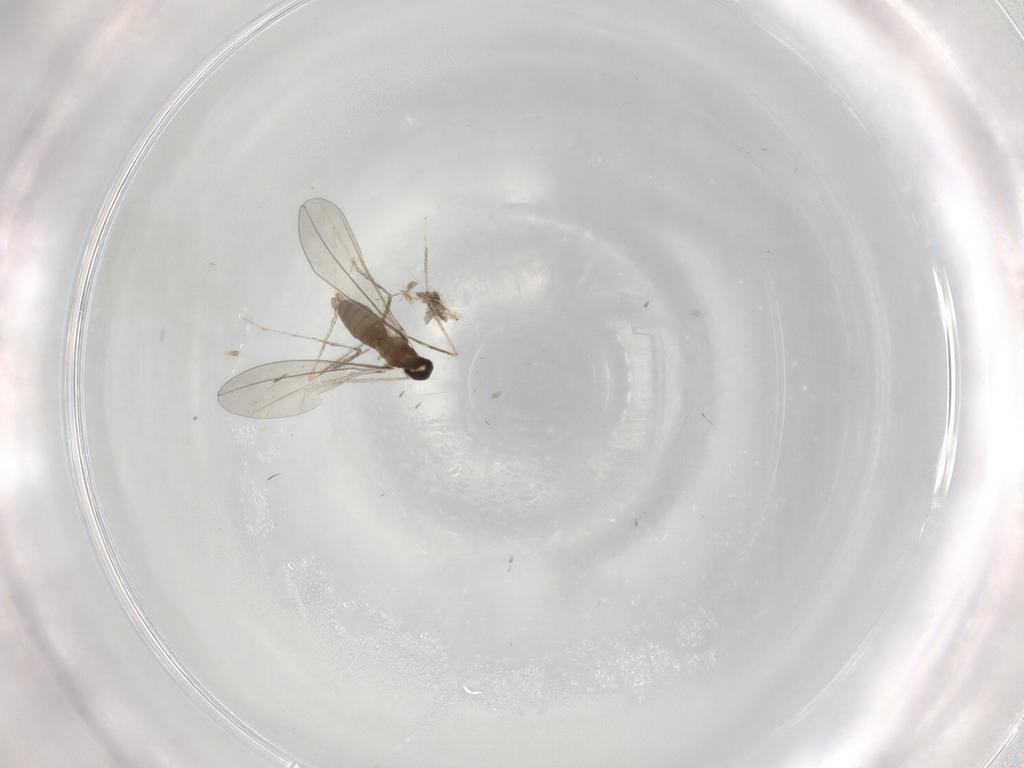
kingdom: Animalia
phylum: Arthropoda
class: Insecta
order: Diptera
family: Cecidomyiidae
